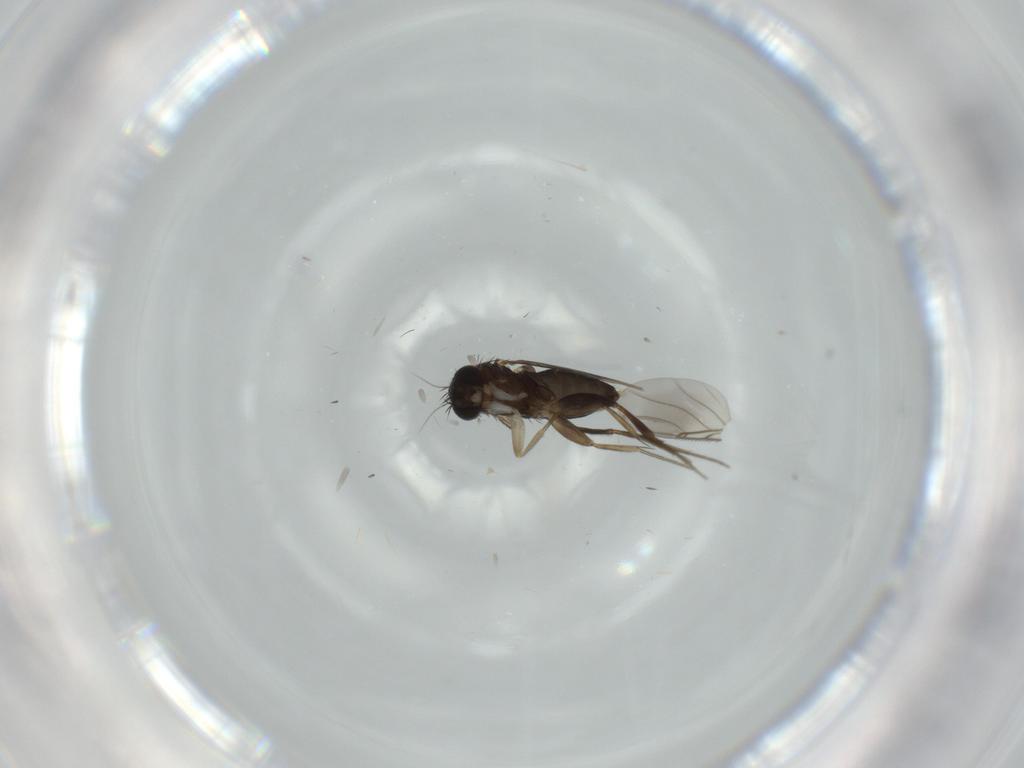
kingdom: Animalia
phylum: Arthropoda
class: Insecta
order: Diptera
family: Phoridae
